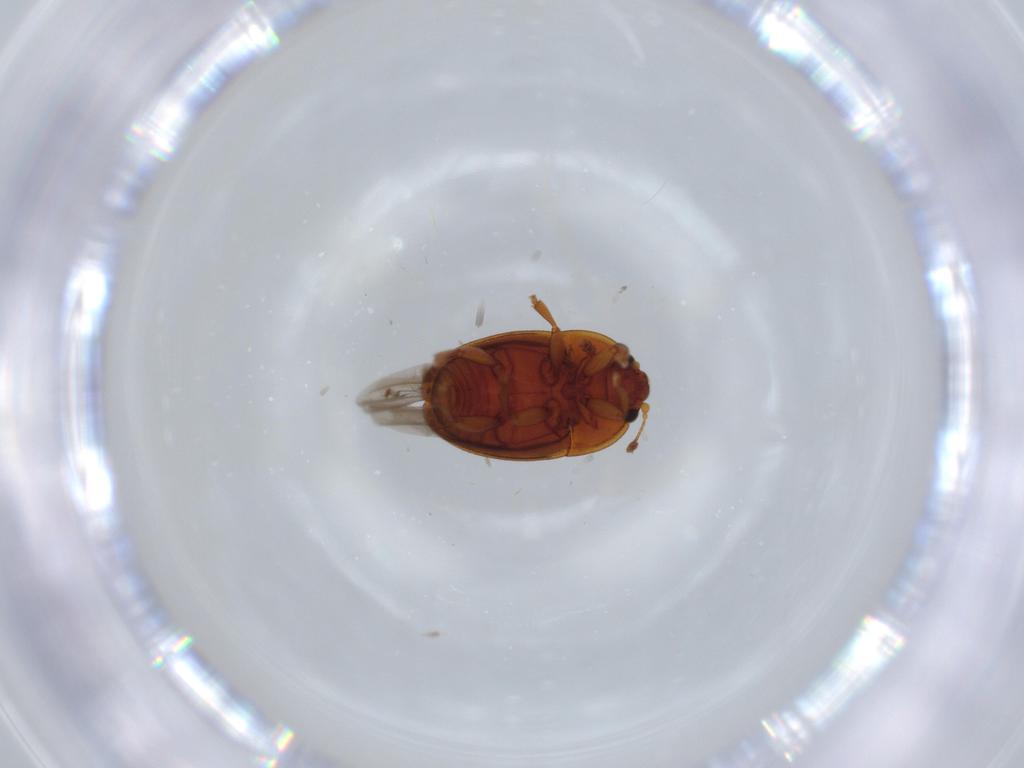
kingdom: Animalia
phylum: Arthropoda
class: Insecta
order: Coleoptera
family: Nitidulidae
